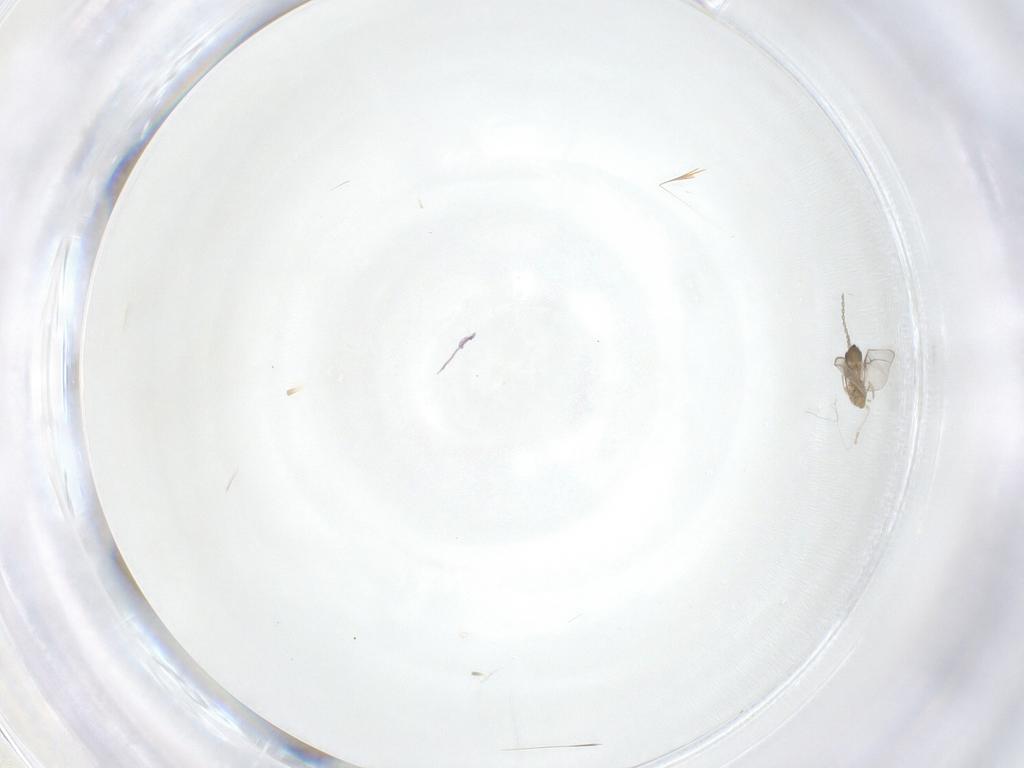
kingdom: Animalia
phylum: Arthropoda
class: Insecta
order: Diptera
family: Cecidomyiidae
